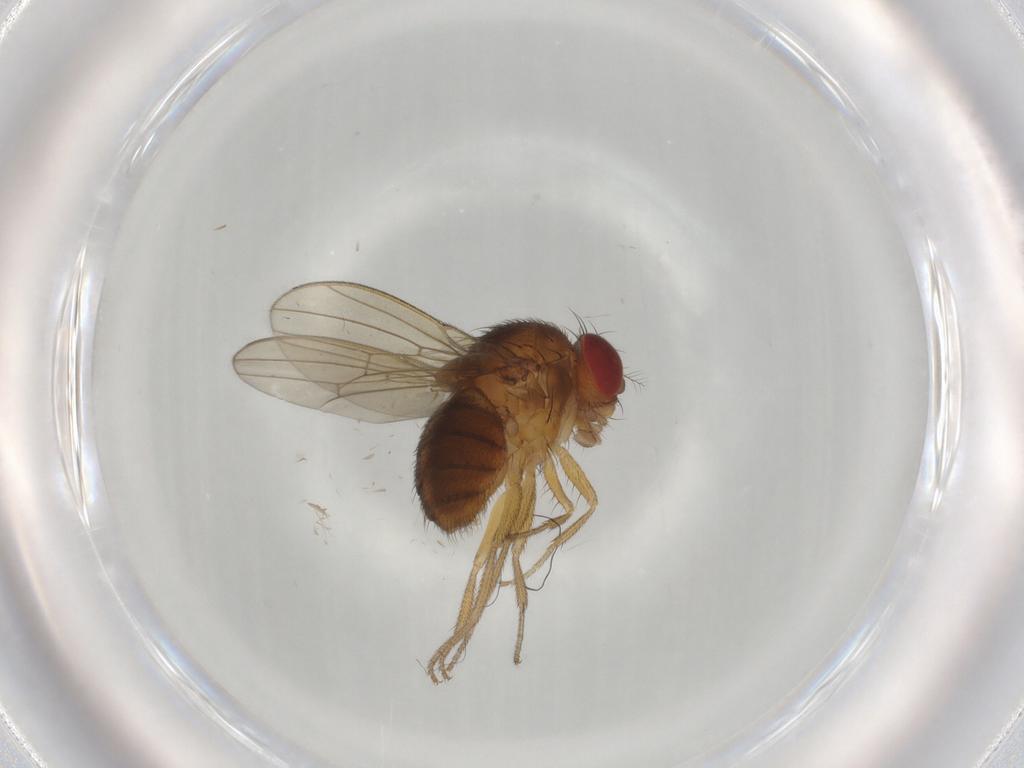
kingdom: Animalia
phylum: Arthropoda
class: Insecta
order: Diptera
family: Drosophilidae
